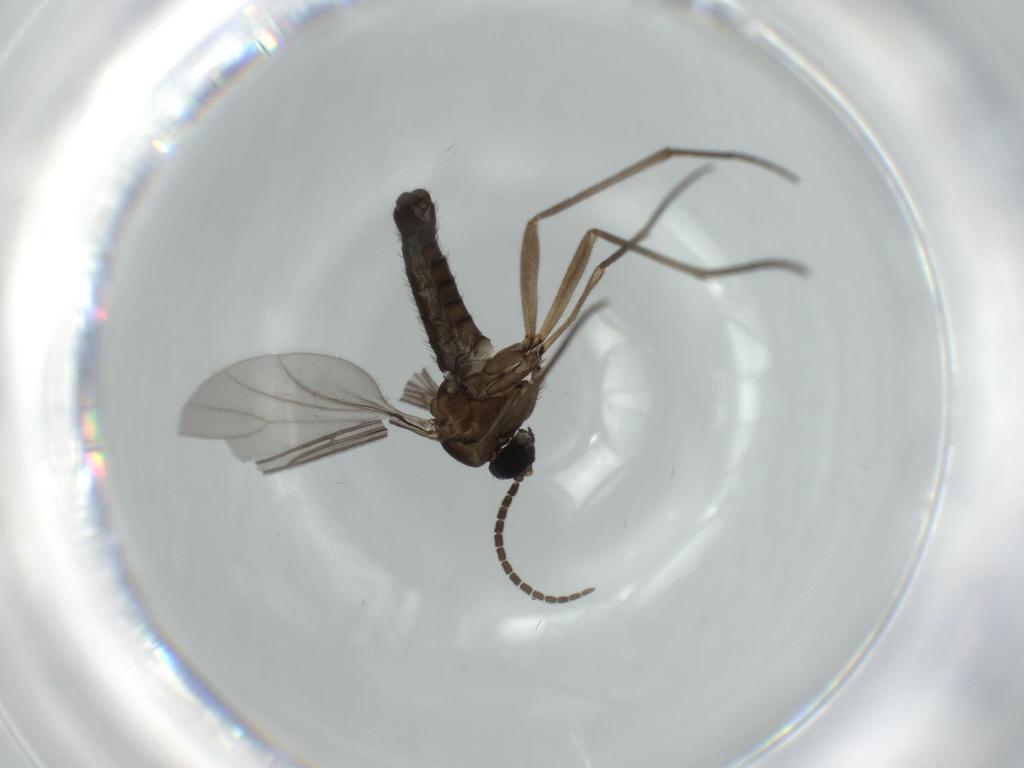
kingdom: Animalia
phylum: Arthropoda
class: Insecta
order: Diptera
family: Sciaridae
